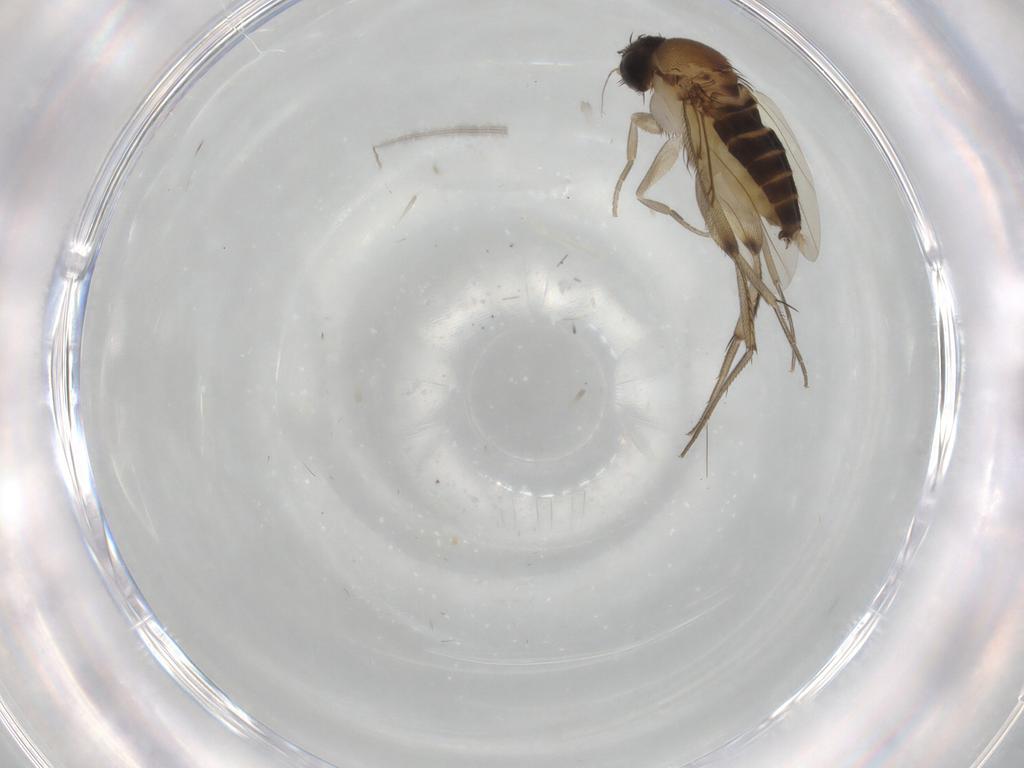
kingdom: Animalia
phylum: Arthropoda
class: Insecta
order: Diptera
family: Phoridae
